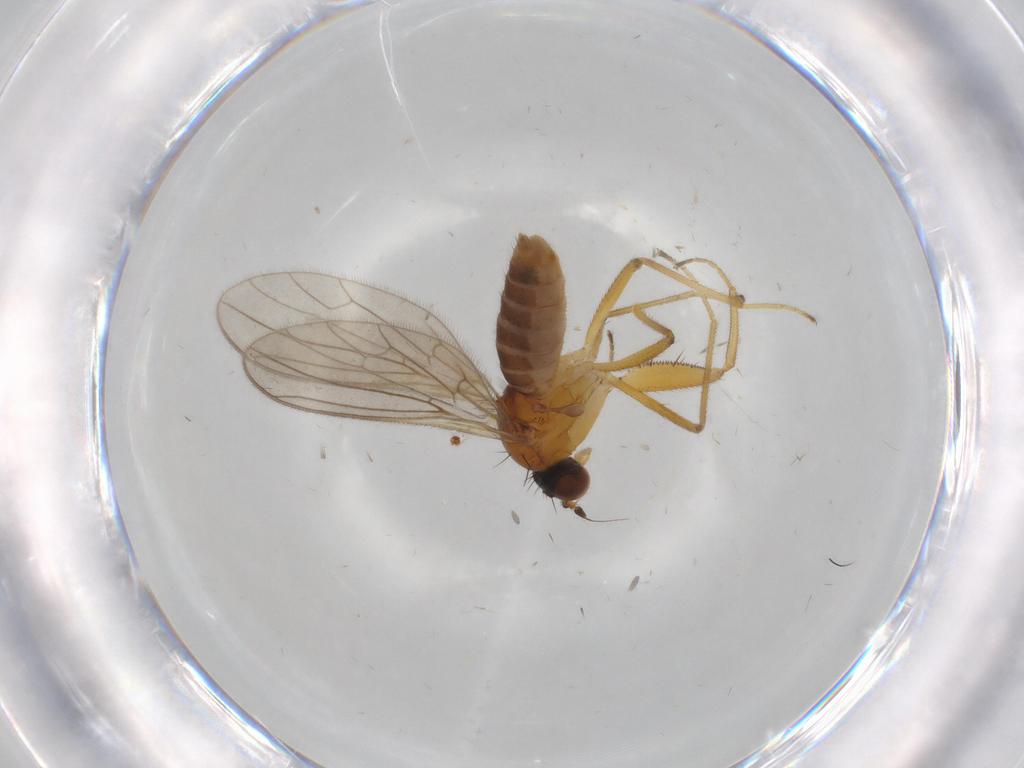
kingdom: Animalia
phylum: Arthropoda
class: Insecta
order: Diptera
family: Empididae
